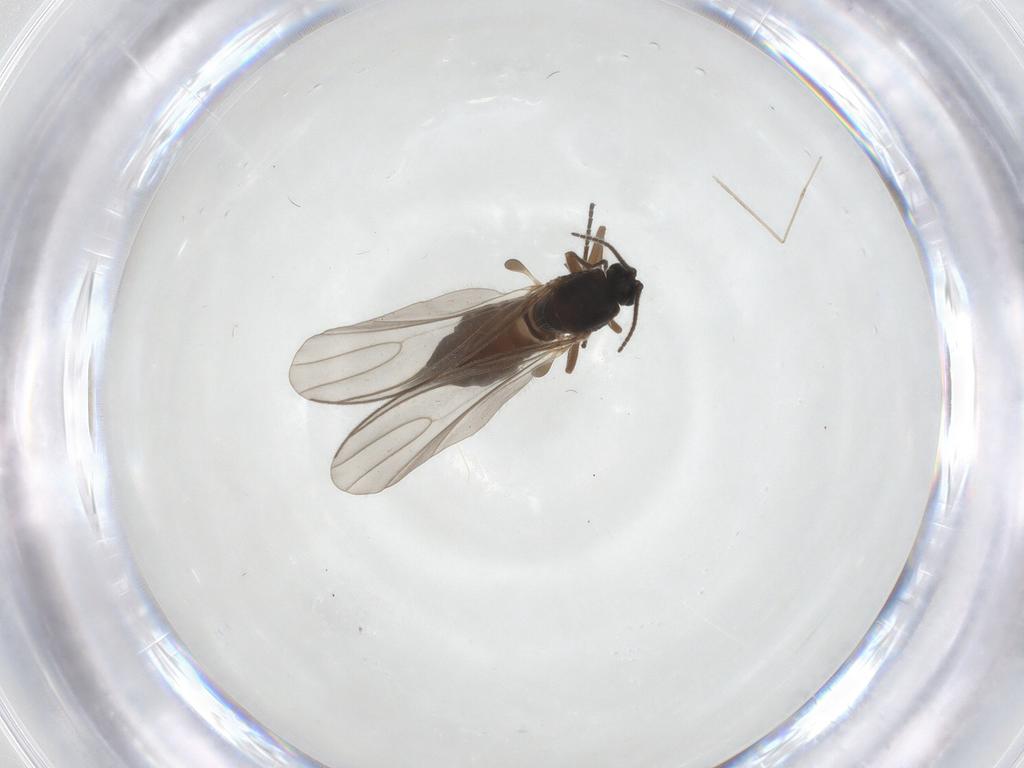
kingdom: Animalia
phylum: Arthropoda
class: Insecta
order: Diptera
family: Sciaridae
